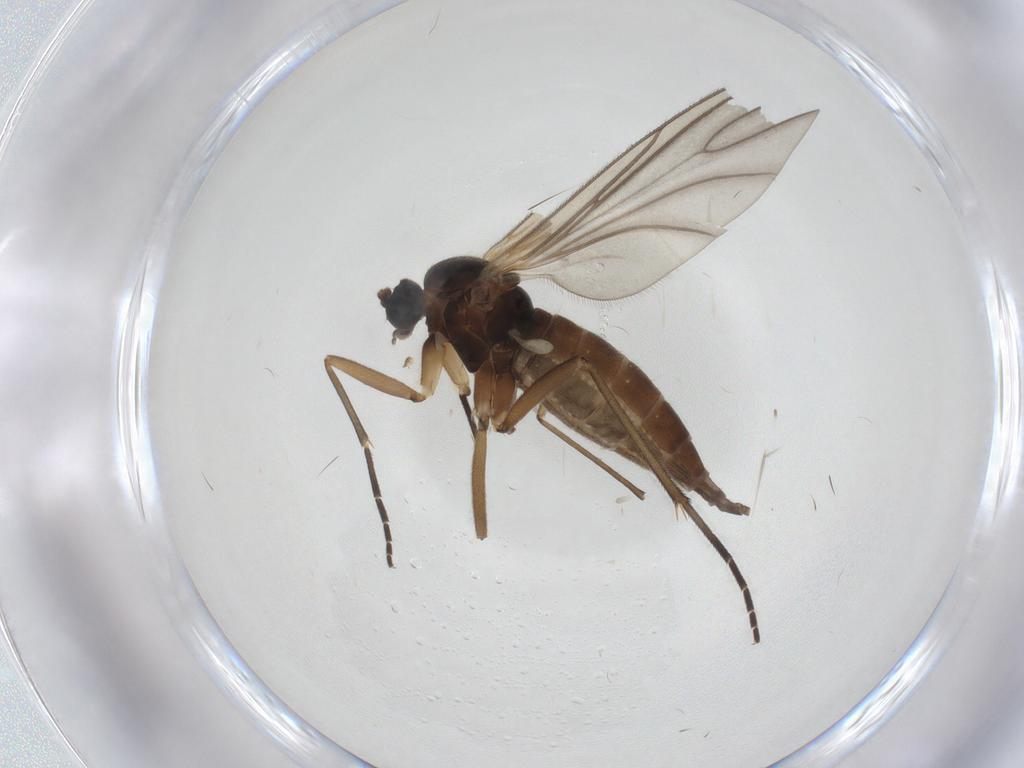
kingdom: Animalia
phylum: Arthropoda
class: Insecta
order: Diptera
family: Sciaridae
